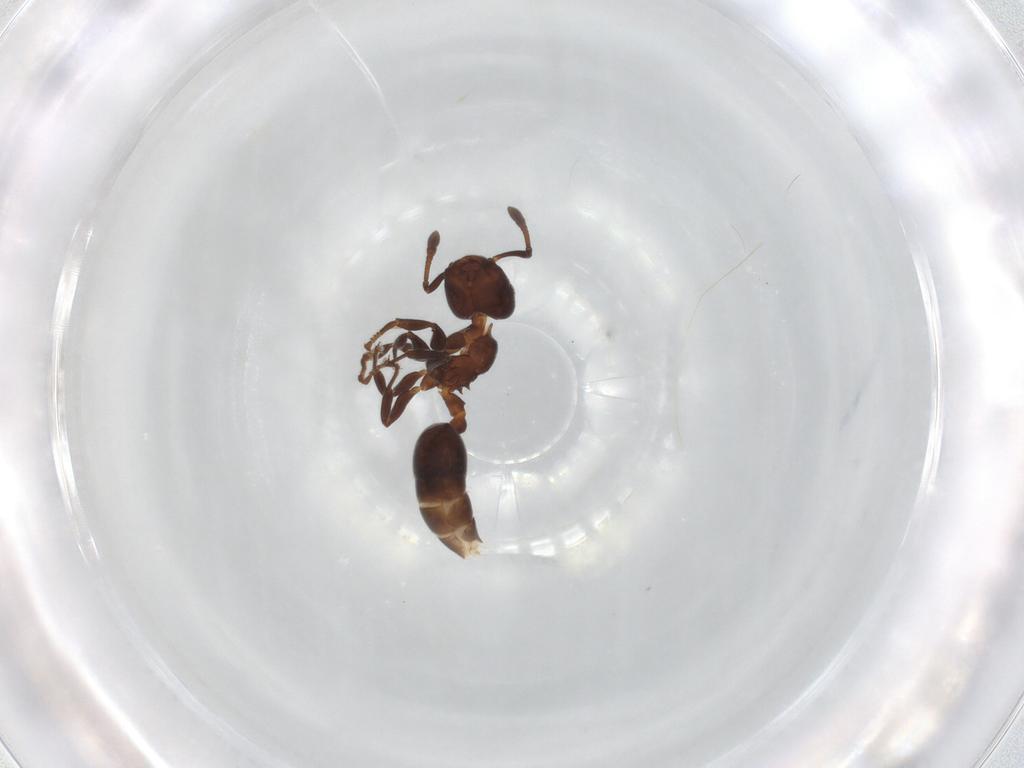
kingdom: Animalia
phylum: Arthropoda
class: Insecta
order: Hymenoptera
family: Formicidae
